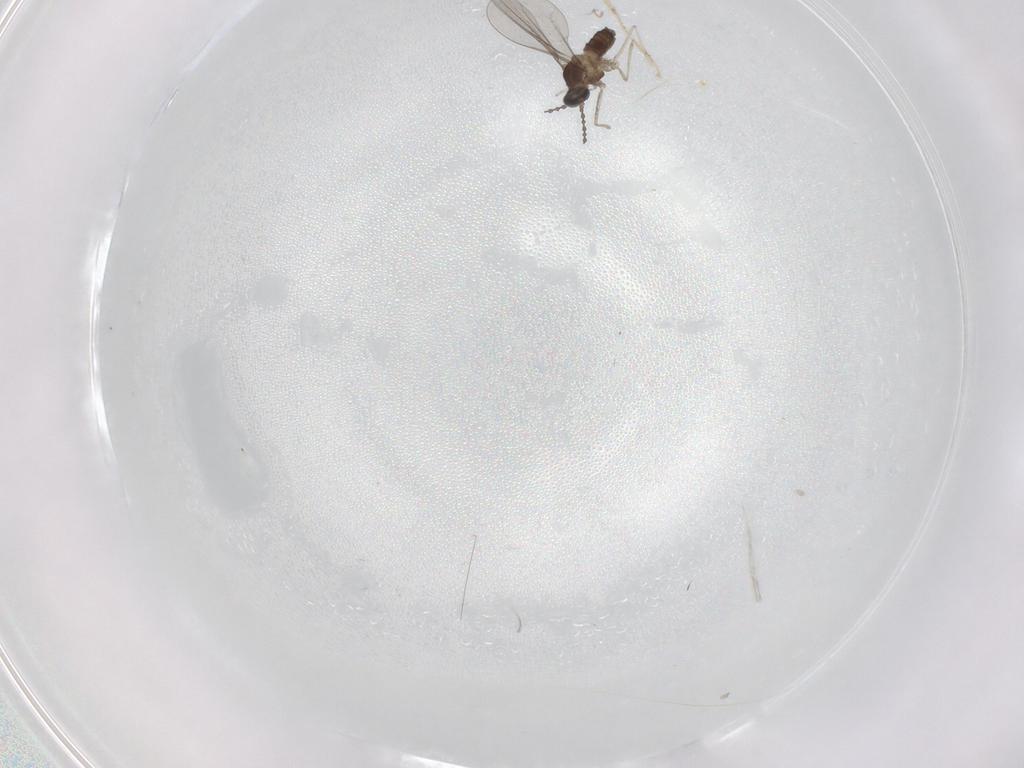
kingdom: Animalia
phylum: Arthropoda
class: Insecta
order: Diptera
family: Cecidomyiidae
